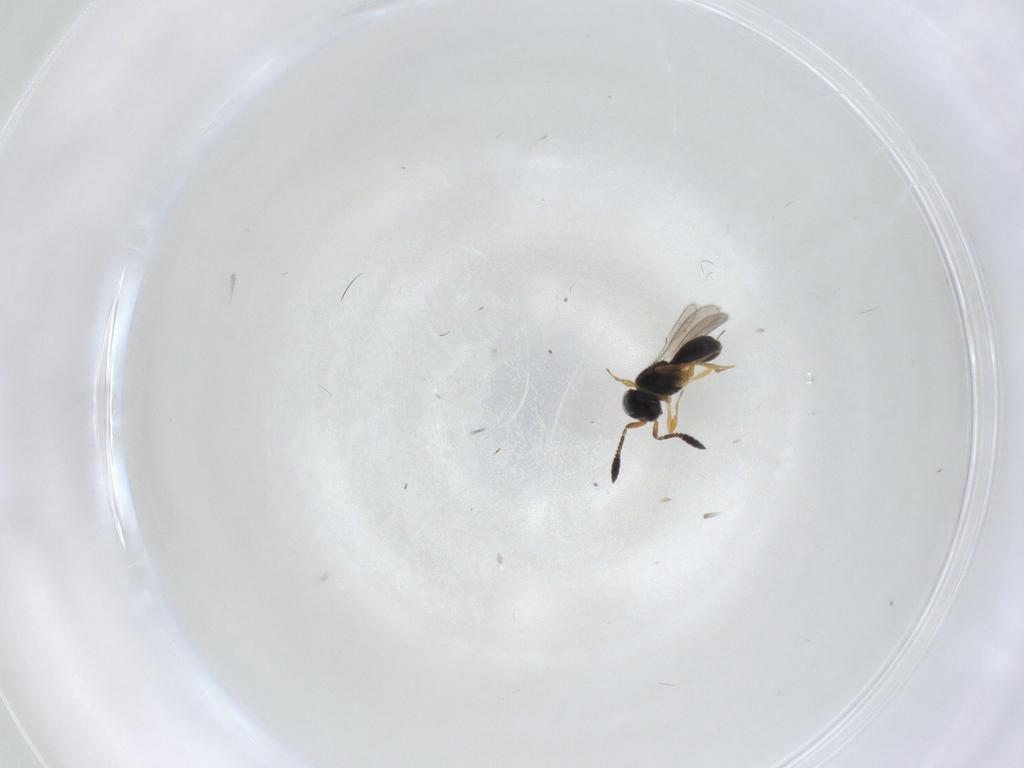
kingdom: Animalia
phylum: Arthropoda
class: Insecta
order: Hymenoptera
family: Scelionidae
